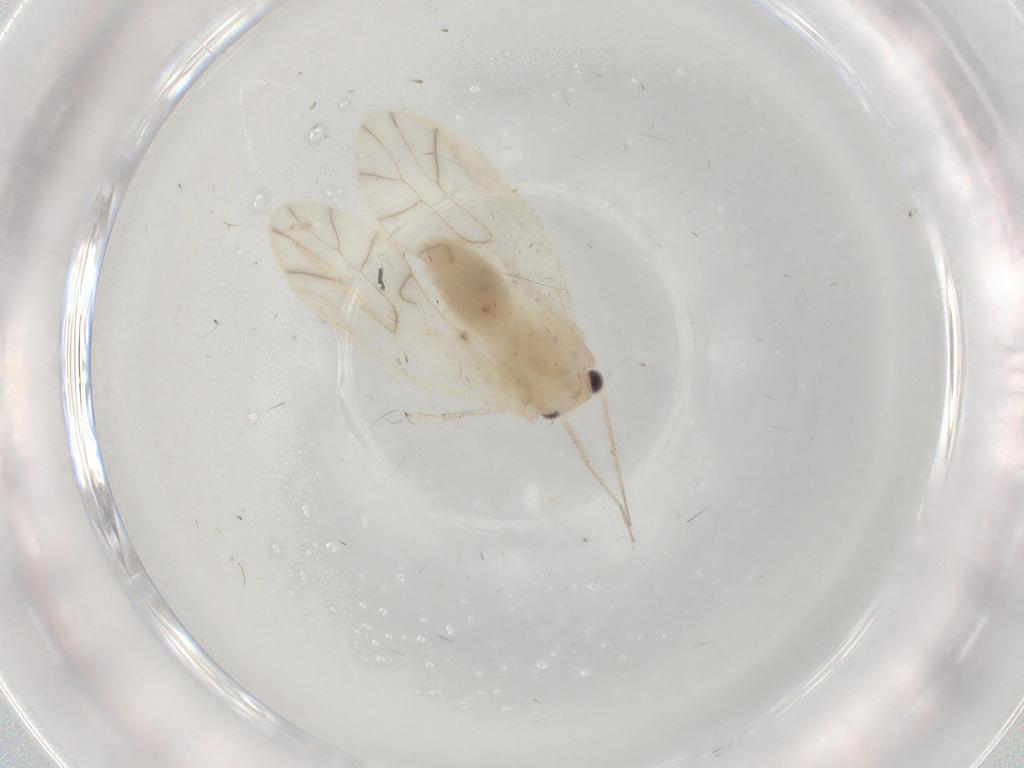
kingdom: Animalia
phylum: Arthropoda
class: Insecta
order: Psocodea
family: Caeciliusidae
